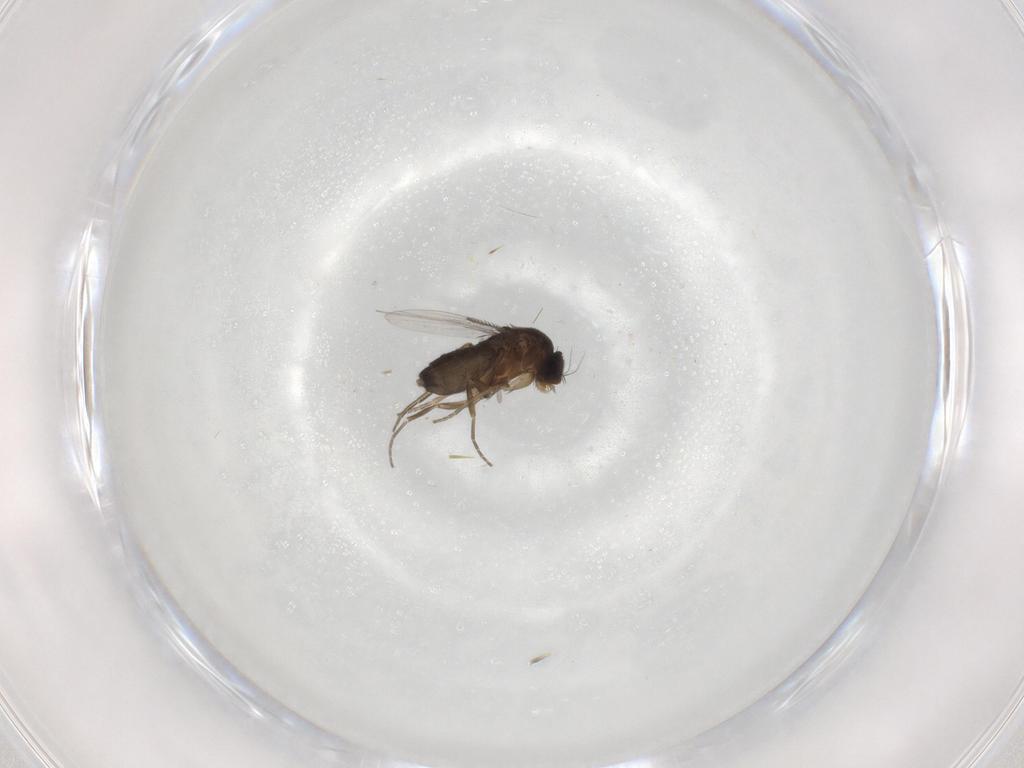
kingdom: Animalia
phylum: Arthropoda
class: Insecta
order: Diptera
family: Phoridae
